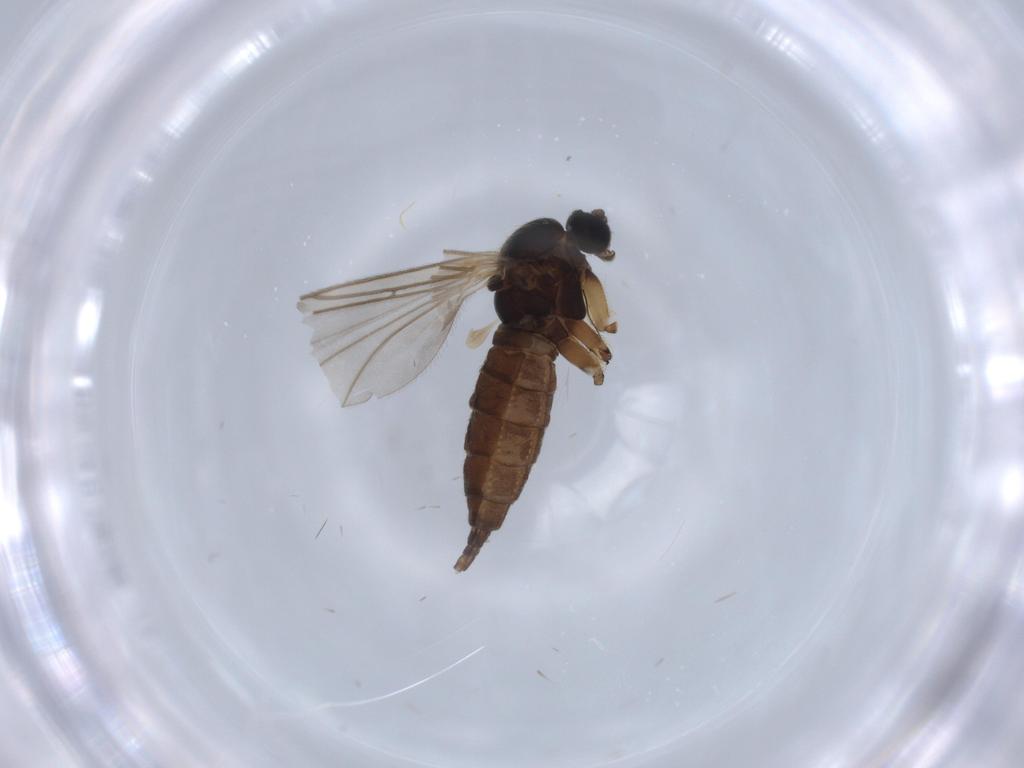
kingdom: Animalia
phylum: Arthropoda
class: Insecta
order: Diptera
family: Sciaridae
